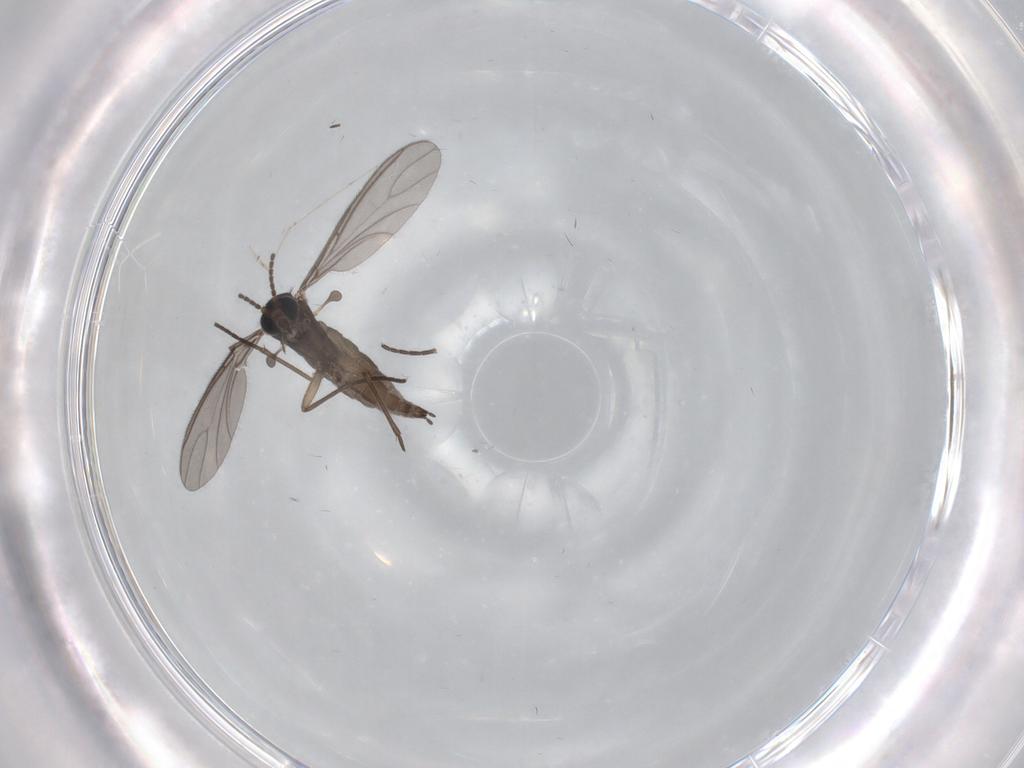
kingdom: Animalia
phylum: Arthropoda
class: Insecta
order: Diptera
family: Sciaridae
